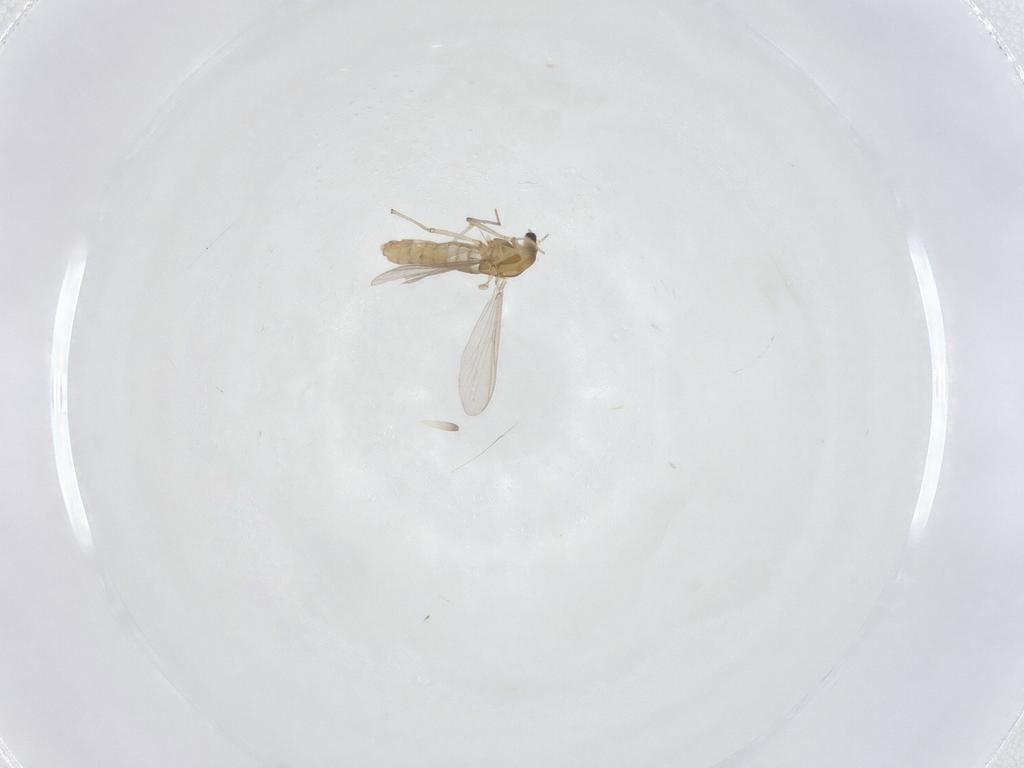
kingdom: Animalia
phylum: Arthropoda
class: Insecta
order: Diptera
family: Chironomidae
